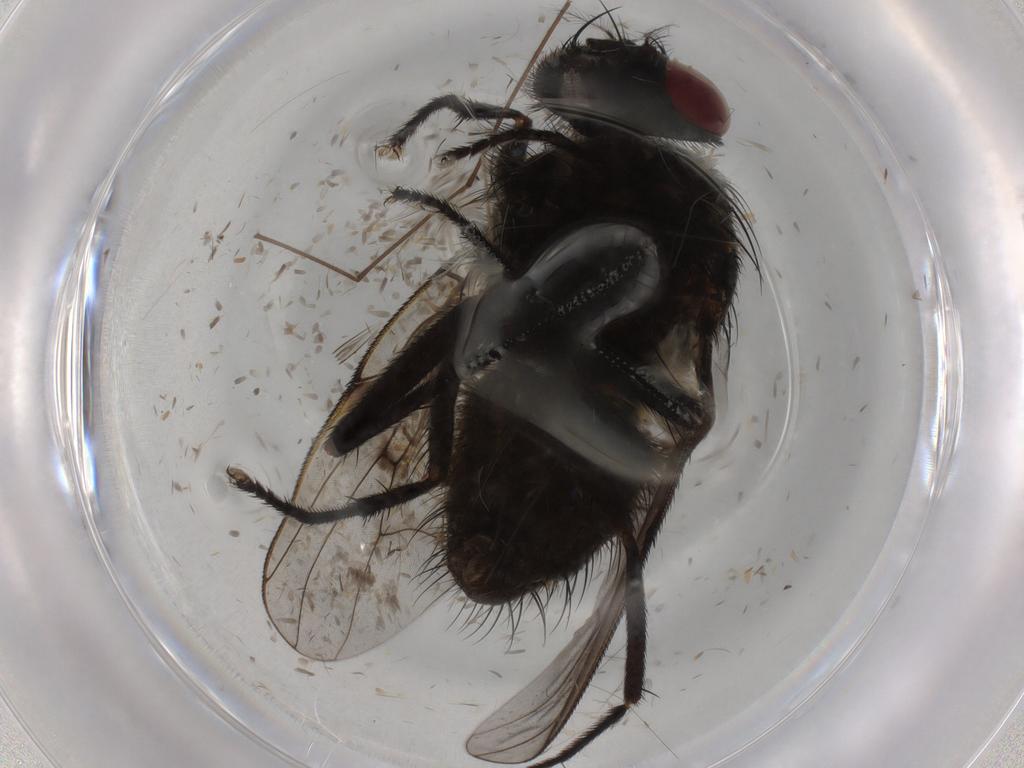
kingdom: Animalia
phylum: Arthropoda
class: Insecta
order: Diptera
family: Muscidae
